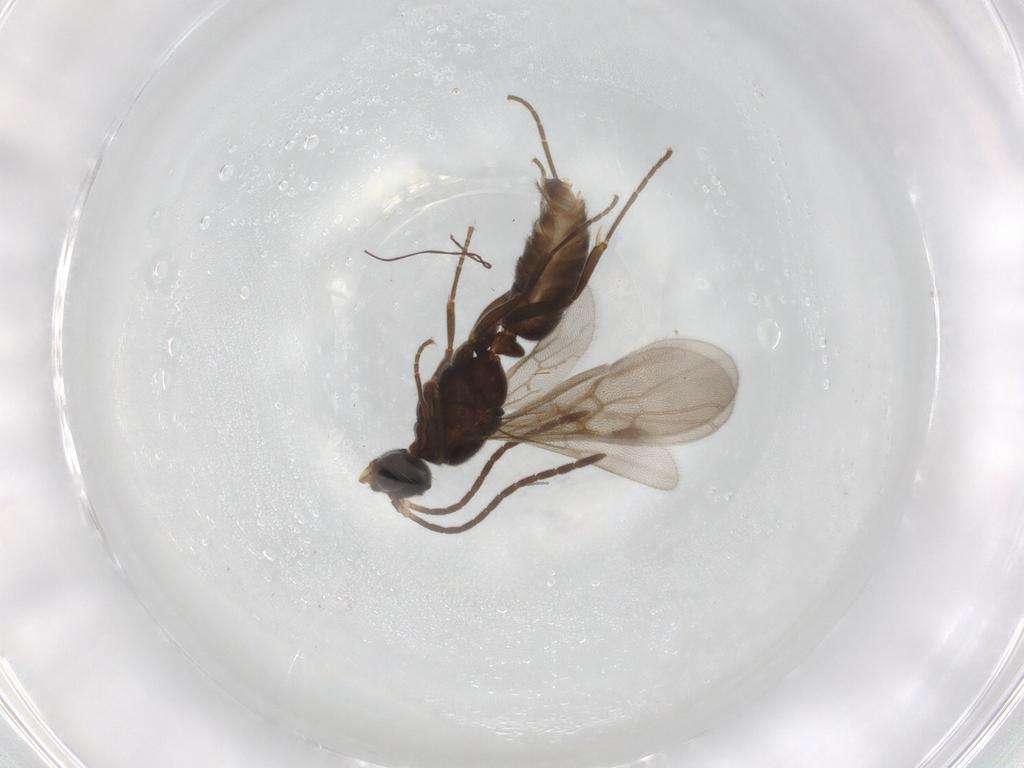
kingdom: Animalia
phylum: Arthropoda
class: Insecta
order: Hymenoptera
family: Formicidae
